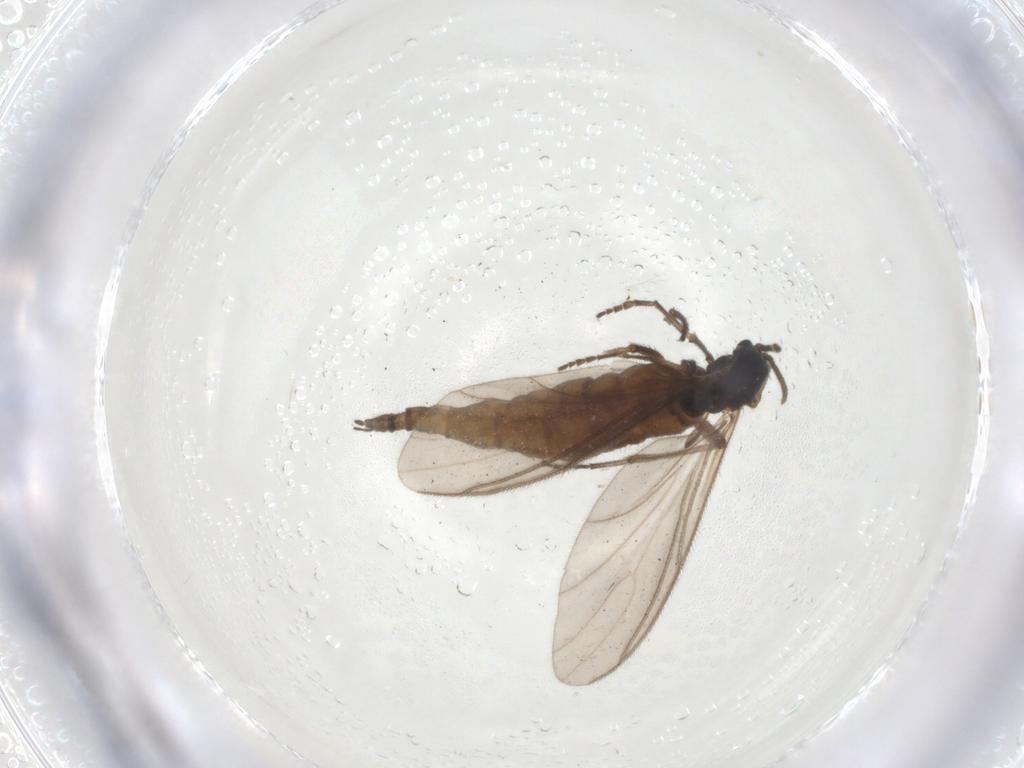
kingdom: Animalia
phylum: Arthropoda
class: Insecta
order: Diptera
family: Sciaridae
